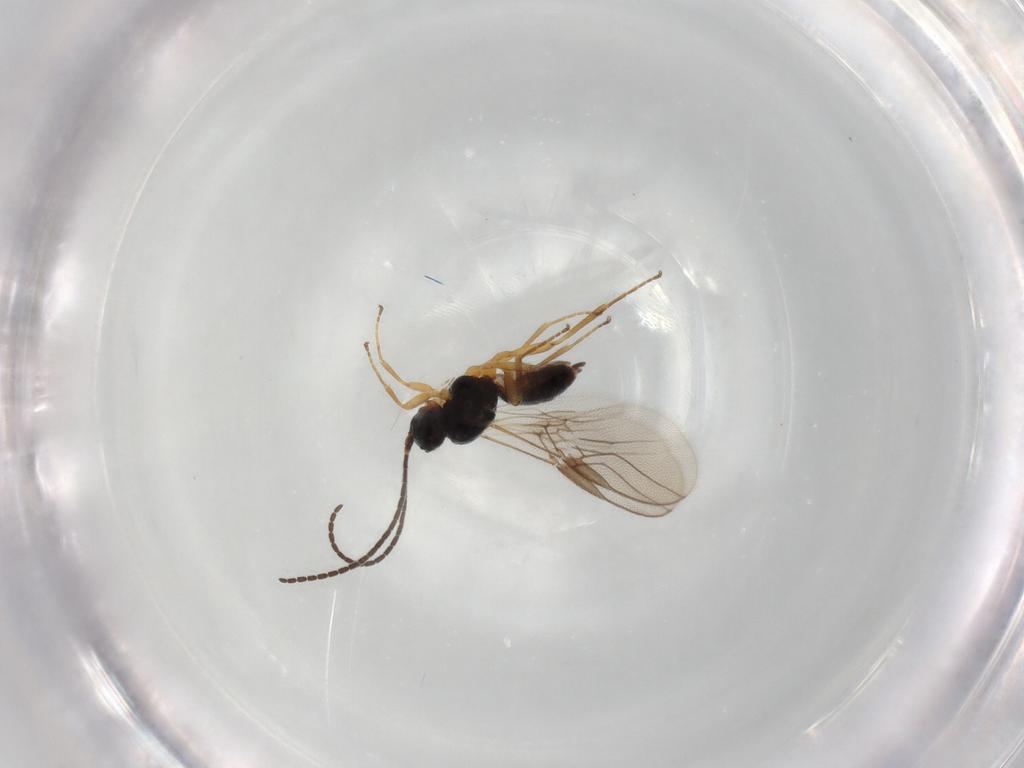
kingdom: Animalia
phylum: Arthropoda
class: Insecta
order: Hymenoptera
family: Braconidae
